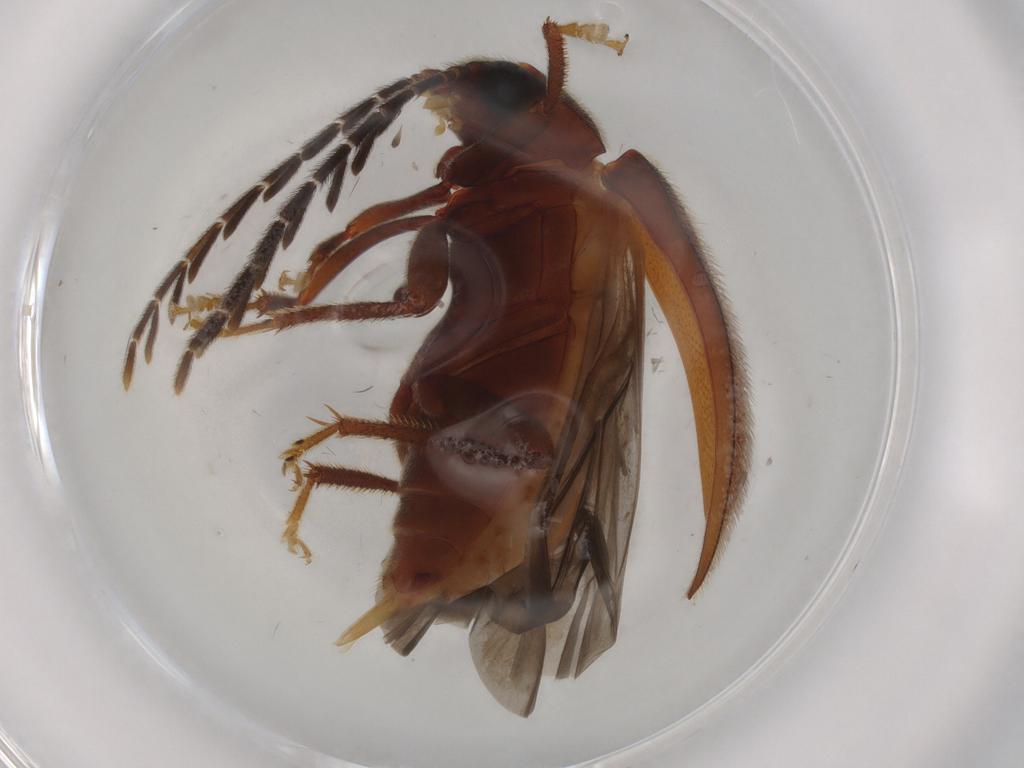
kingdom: Animalia
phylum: Arthropoda
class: Insecta
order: Coleoptera
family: Ptilodactylidae
